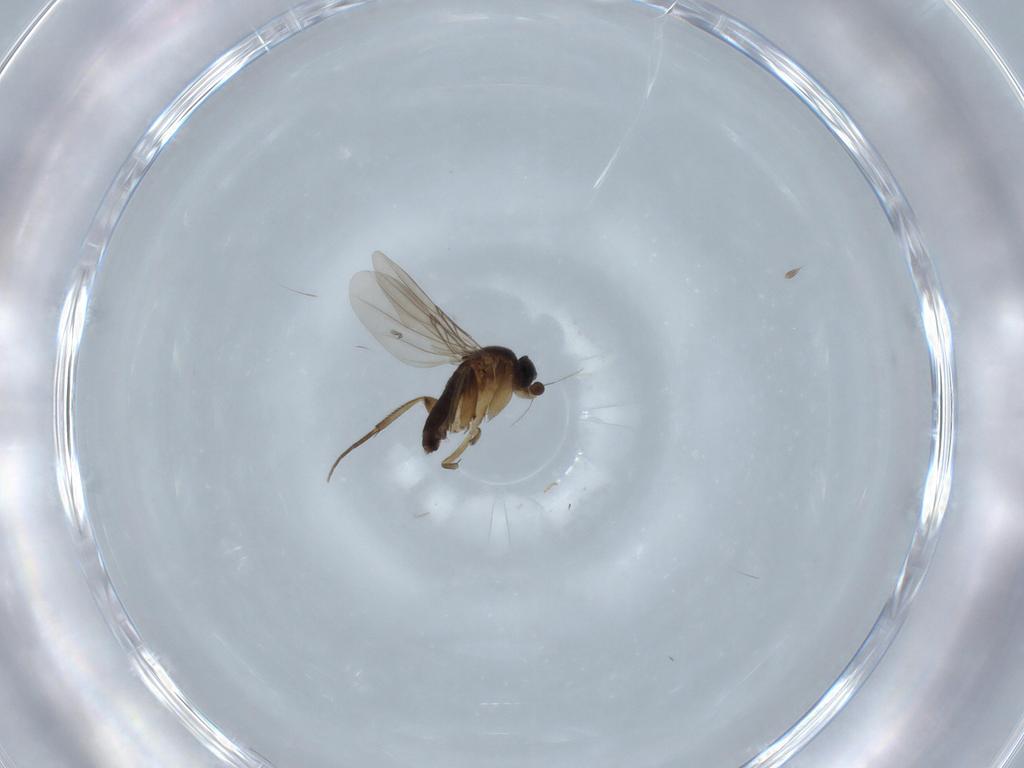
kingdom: Animalia
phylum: Arthropoda
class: Insecta
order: Diptera
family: Phoridae
